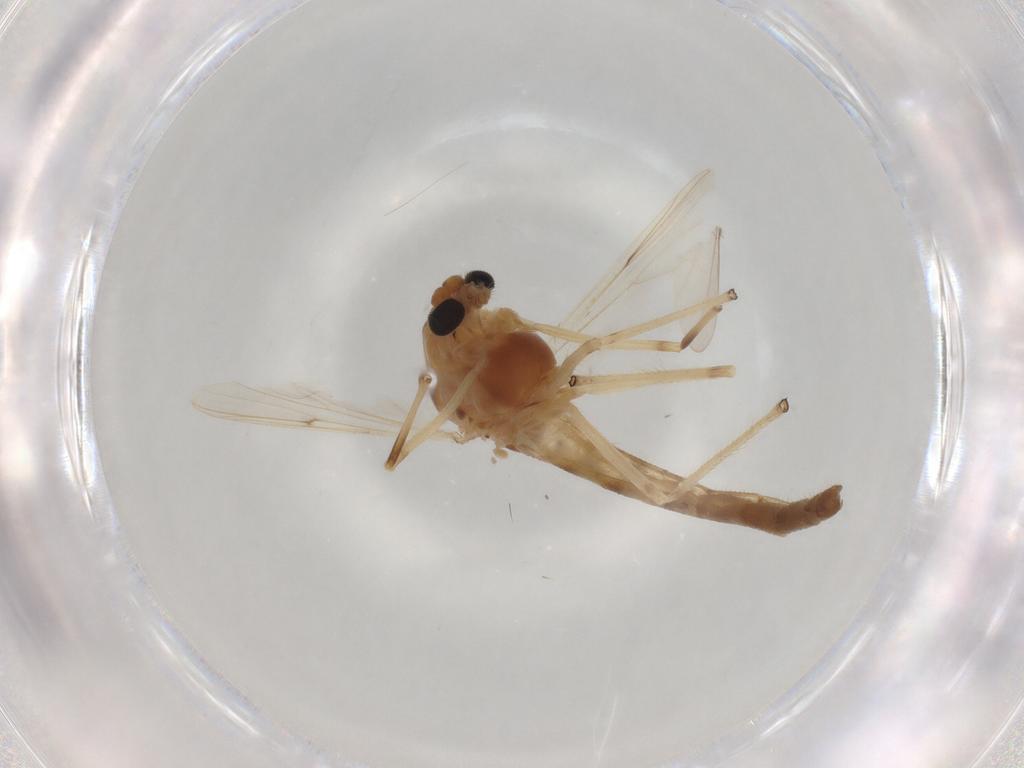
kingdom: Animalia
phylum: Arthropoda
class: Insecta
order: Diptera
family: Chironomidae
